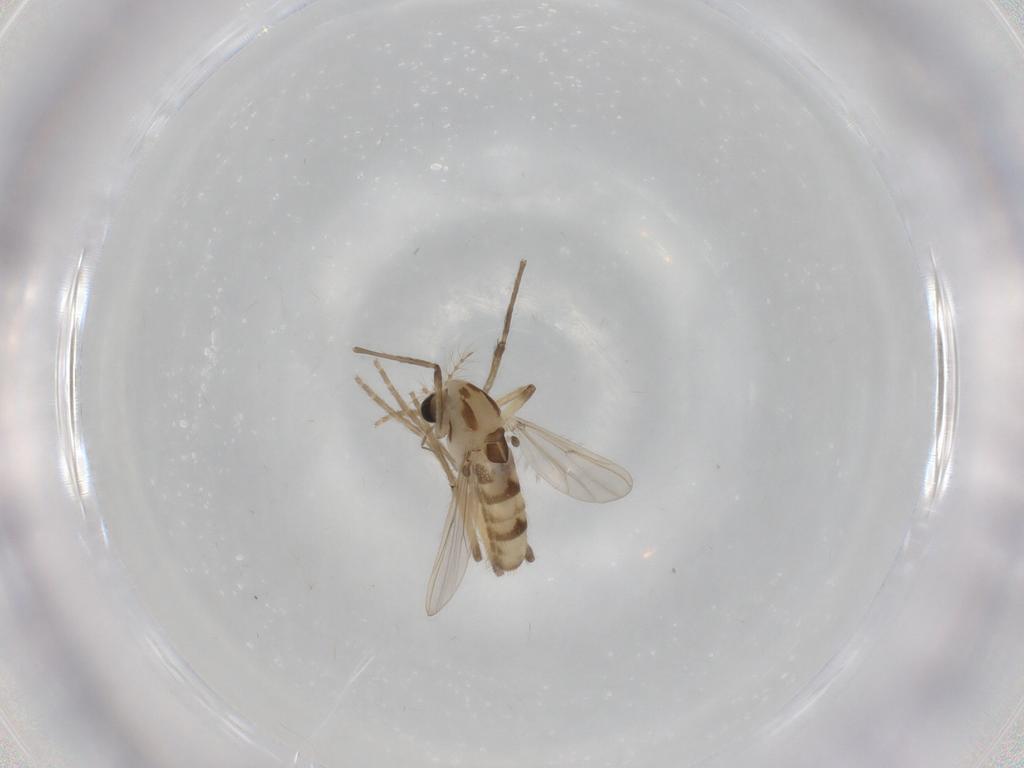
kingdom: Animalia
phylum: Arthropoda
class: Insecta
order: Diptera
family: Chironomidae
